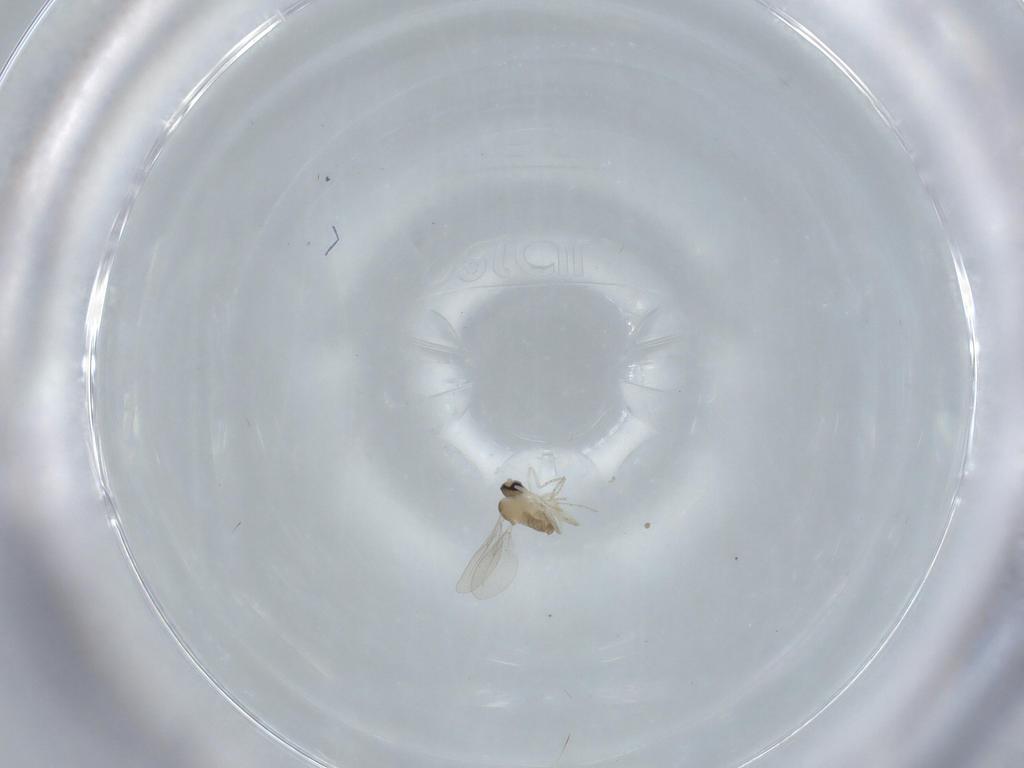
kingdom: Animalia
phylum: Arthropoda
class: Insecta
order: Diptera
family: Cecidomyiidae
